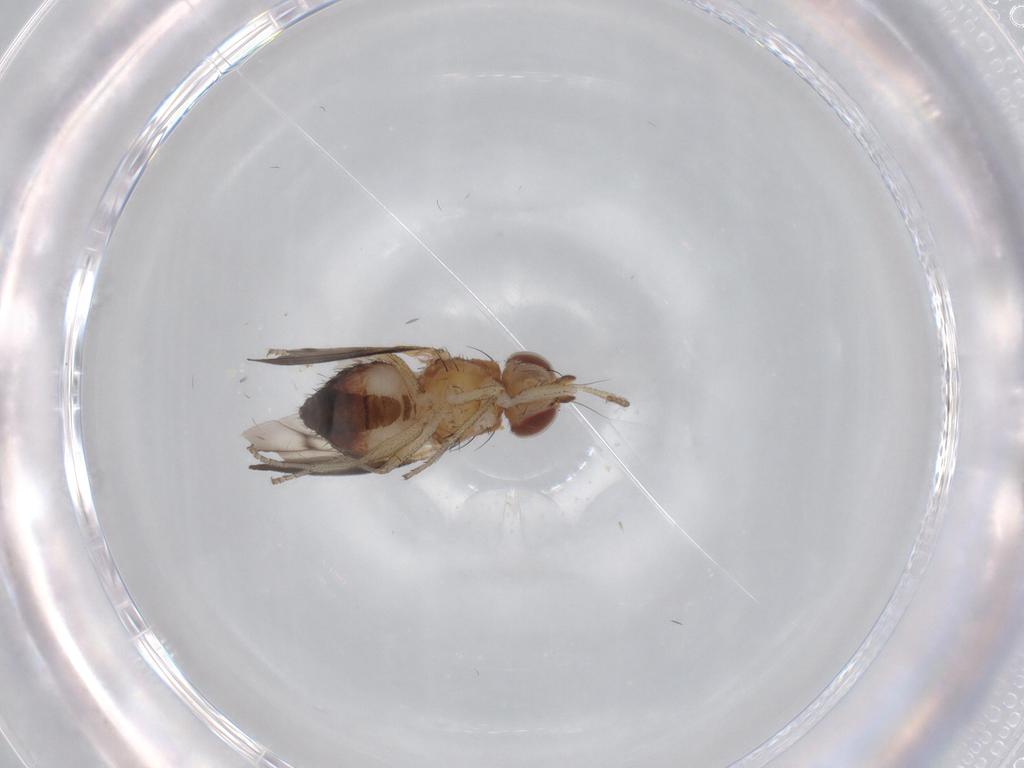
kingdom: Animalia
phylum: Arthropoda
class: Insecta
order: Diptera
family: Heleomyzidae
